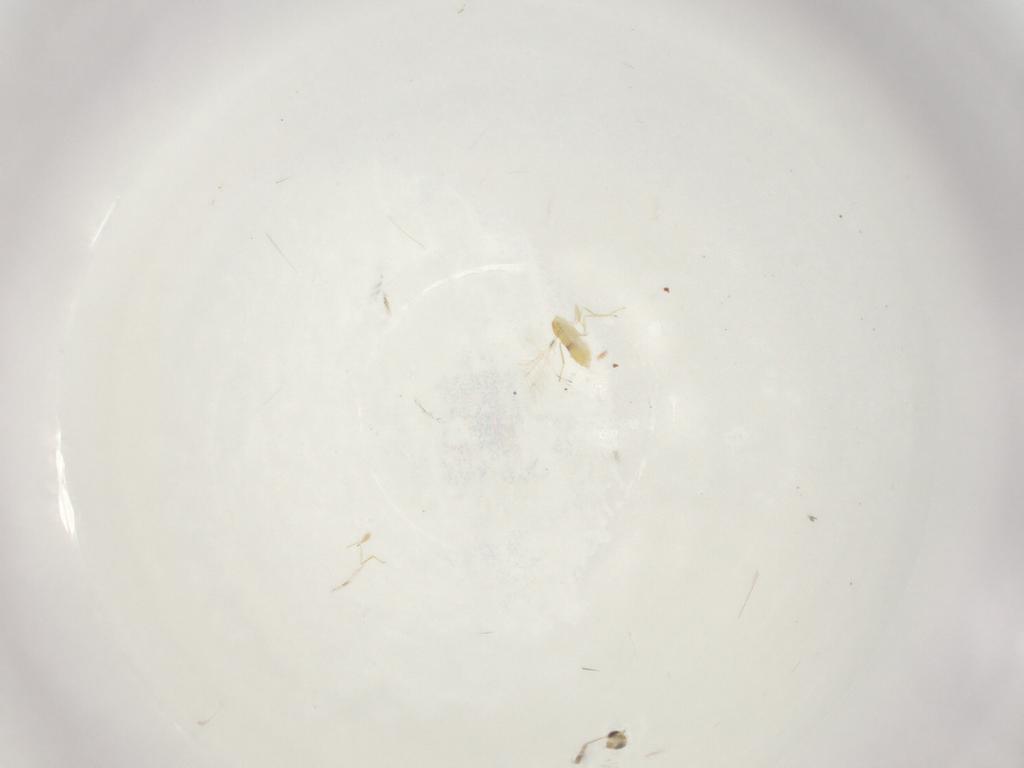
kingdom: Animalia
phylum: Arthropoda
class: Insecta
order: Hymenoptera
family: Mymaridae
